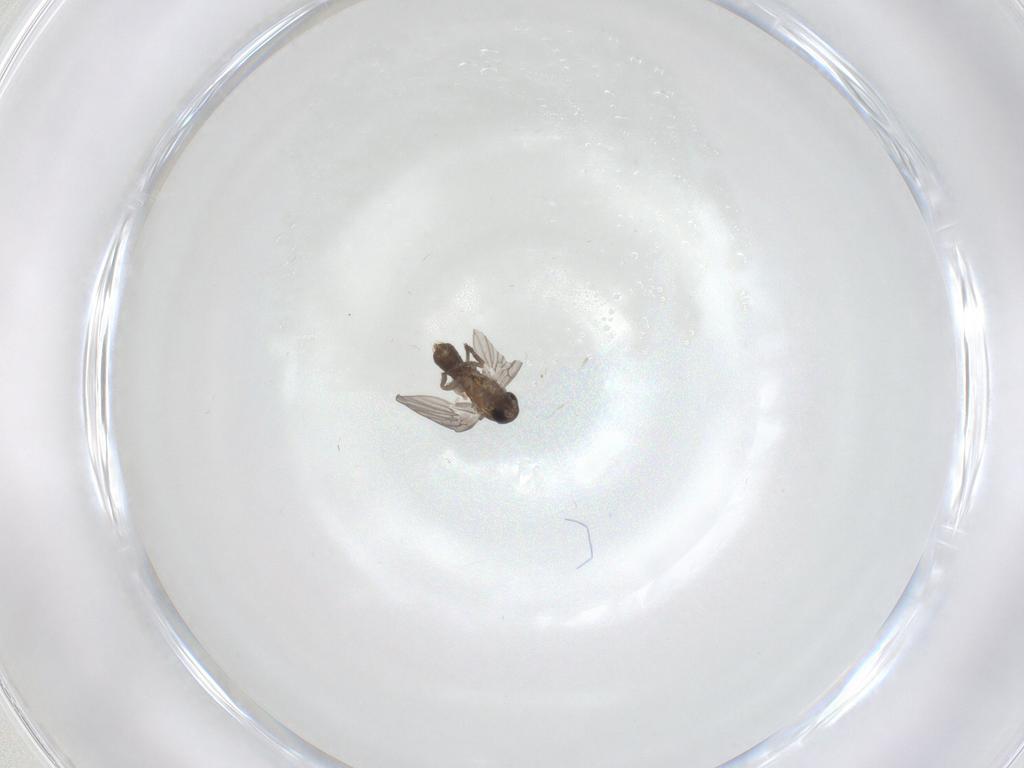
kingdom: Animalia
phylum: Arthropoda
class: Insecta
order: Diptera
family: Psychodidae
